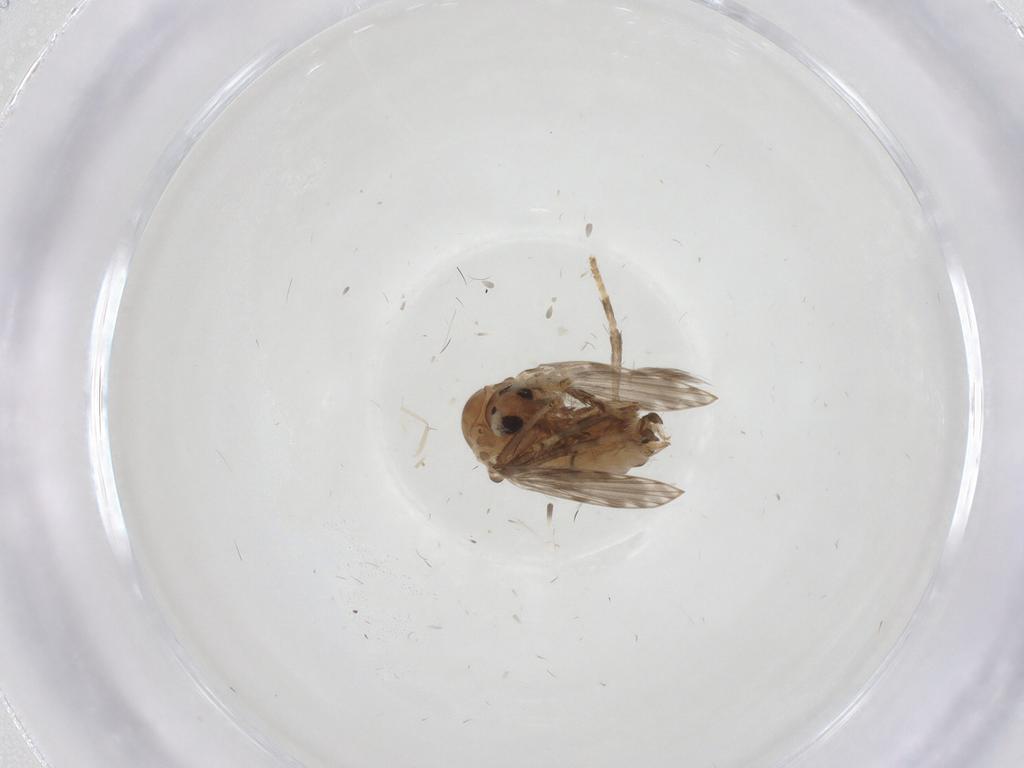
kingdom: Animalia
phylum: Arthropoda
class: Insecta
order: Diptera
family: Psychodidae
